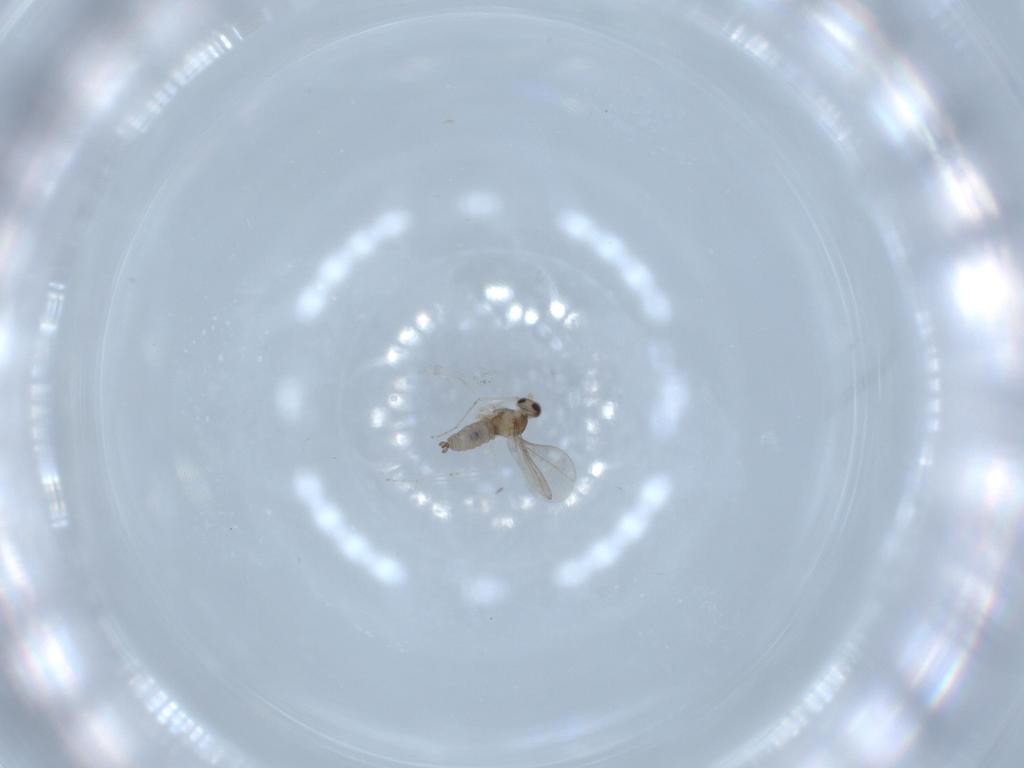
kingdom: Animalia
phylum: Arthropoda
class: Insecta
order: Diptera
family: Cecidomyiidae
